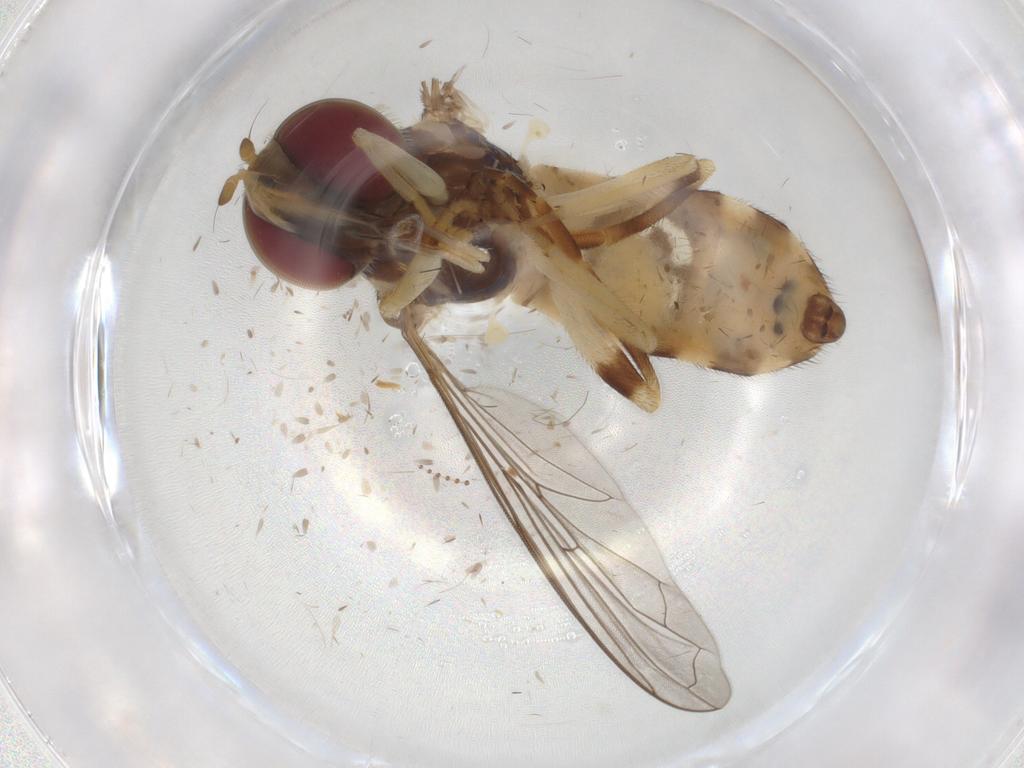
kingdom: Animalia
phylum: Arthropoda
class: Insecta
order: Diptera
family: Syrphidae
